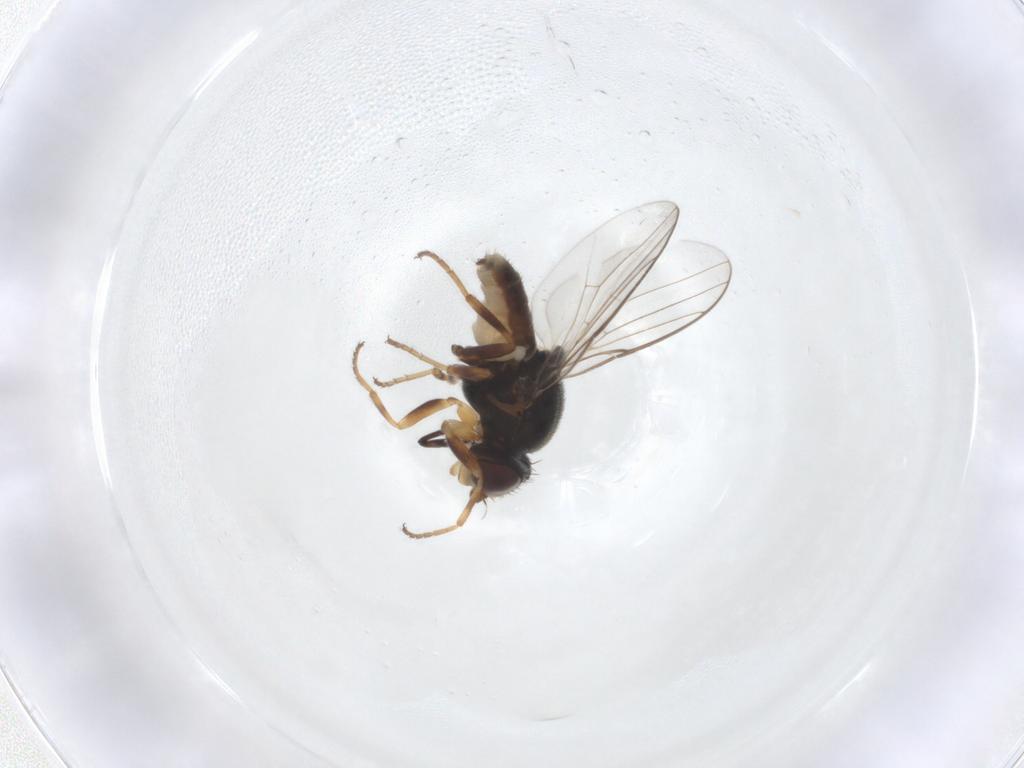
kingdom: Animalia
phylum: Arthropoda
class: Insecta
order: Diptera
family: Chloropidae
